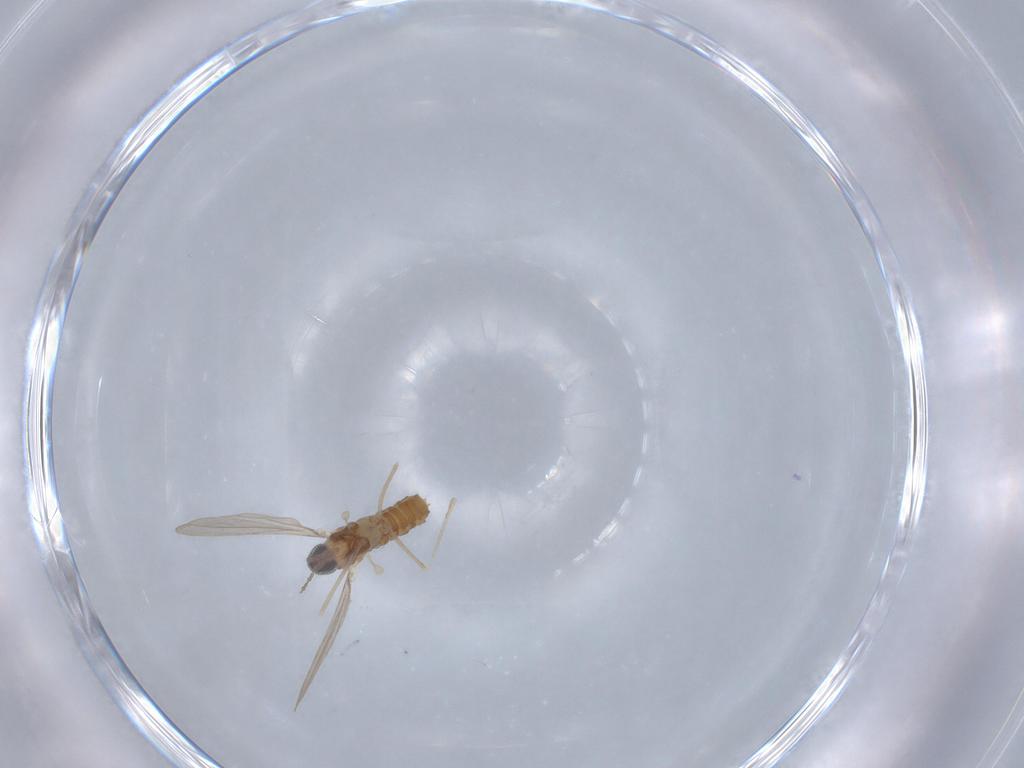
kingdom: Animalia
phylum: Arthropoda
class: Insecta
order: Diptera
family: Cecidomyiidae
